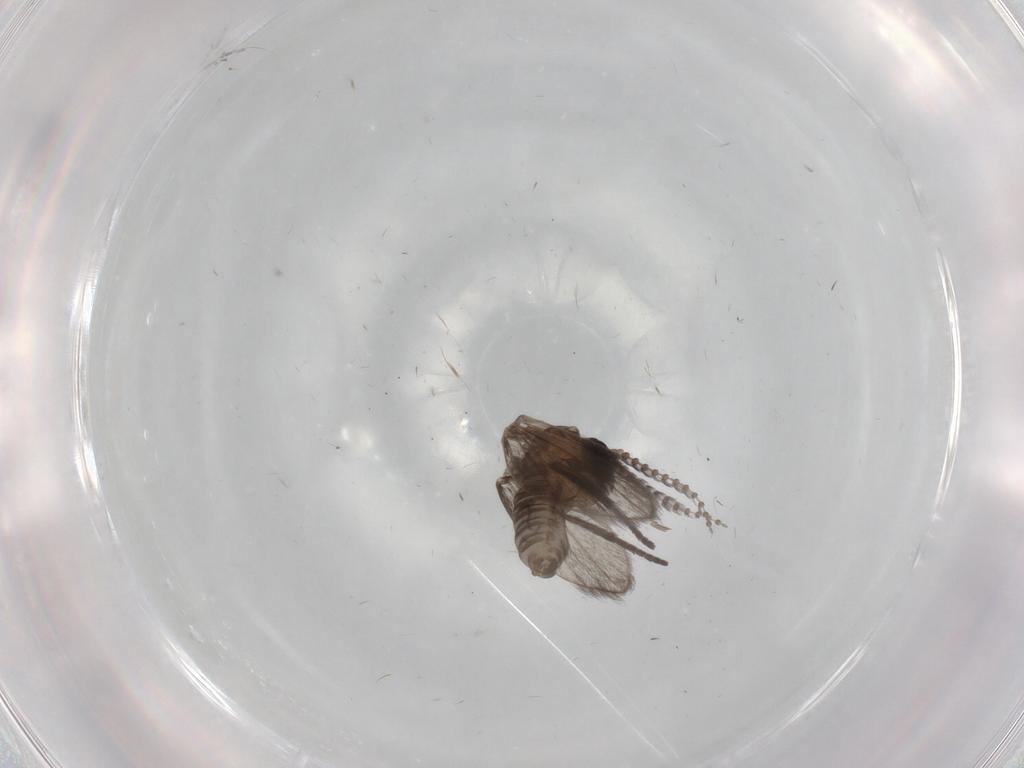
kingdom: Animalia
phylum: Arthropoda
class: Insecta
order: Diptera
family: Psychodidae
